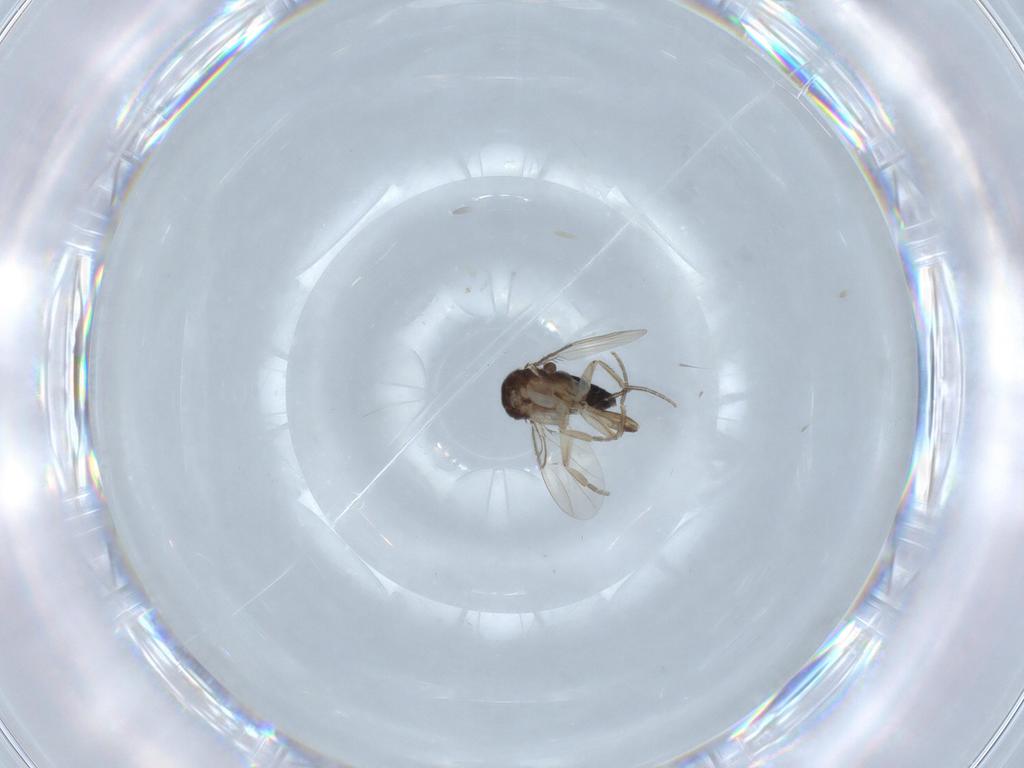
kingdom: Animalia
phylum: Arthropoda
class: Insecta
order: Diptera
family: Phoridae
